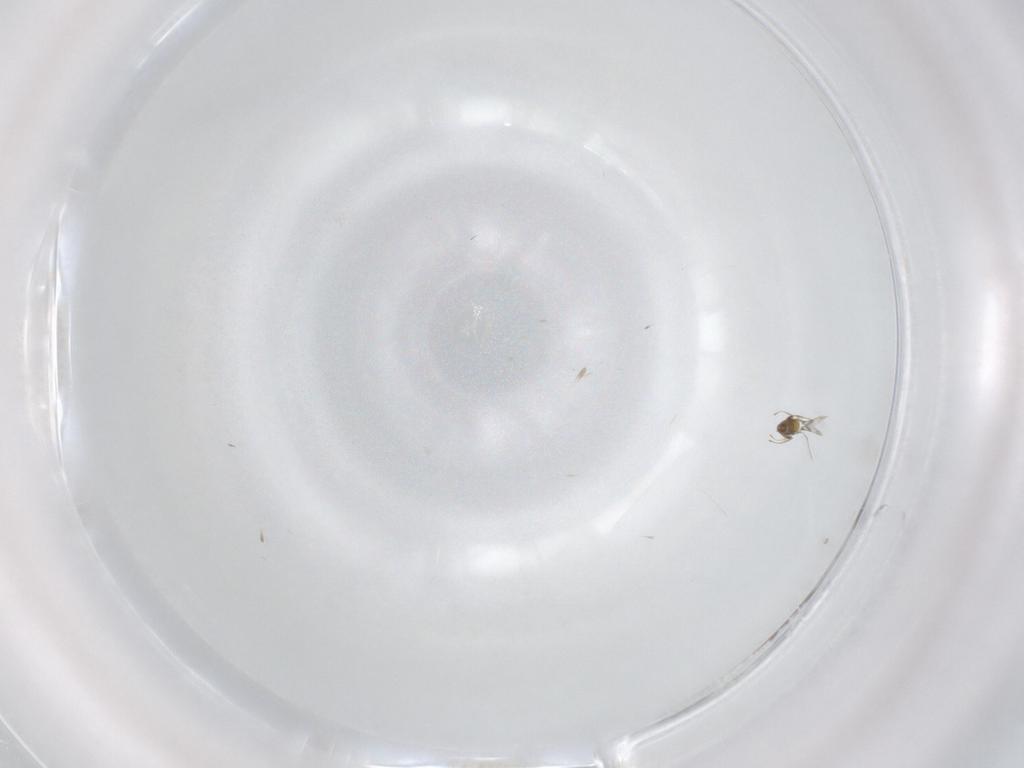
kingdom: Animalia
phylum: Arthropoda
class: Insecta
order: Hymenoptera
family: Trichogrammatidae
